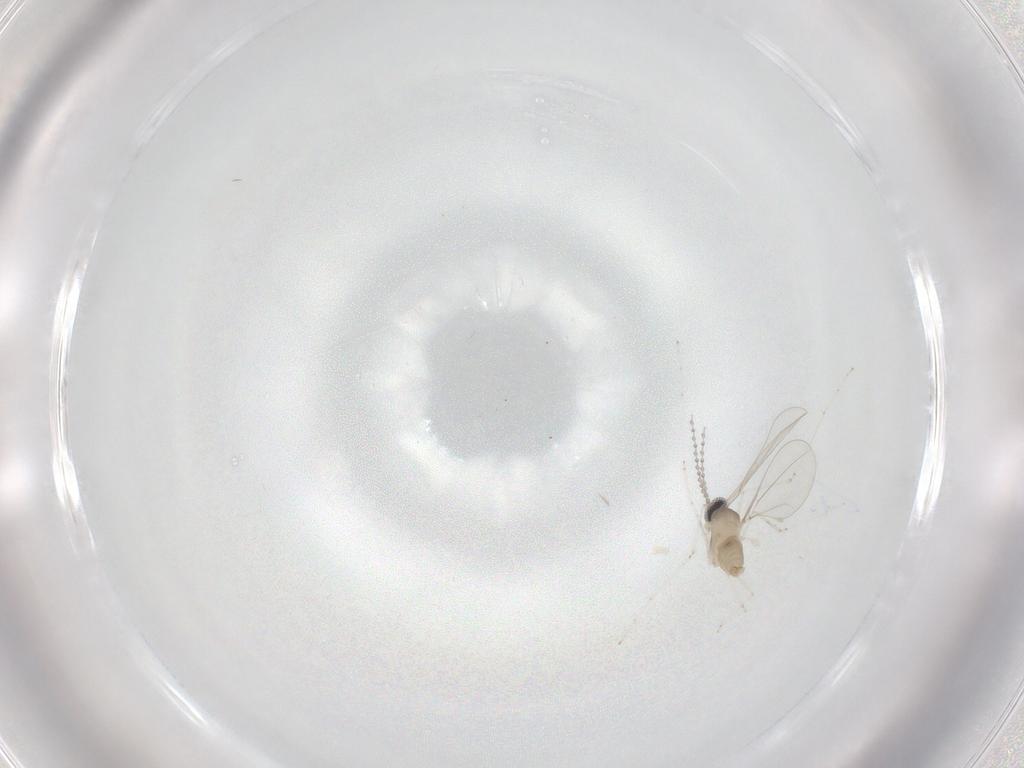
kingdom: Animalia
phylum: Arthropoda
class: Insecta
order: Diptera
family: Cecidomyiidae
